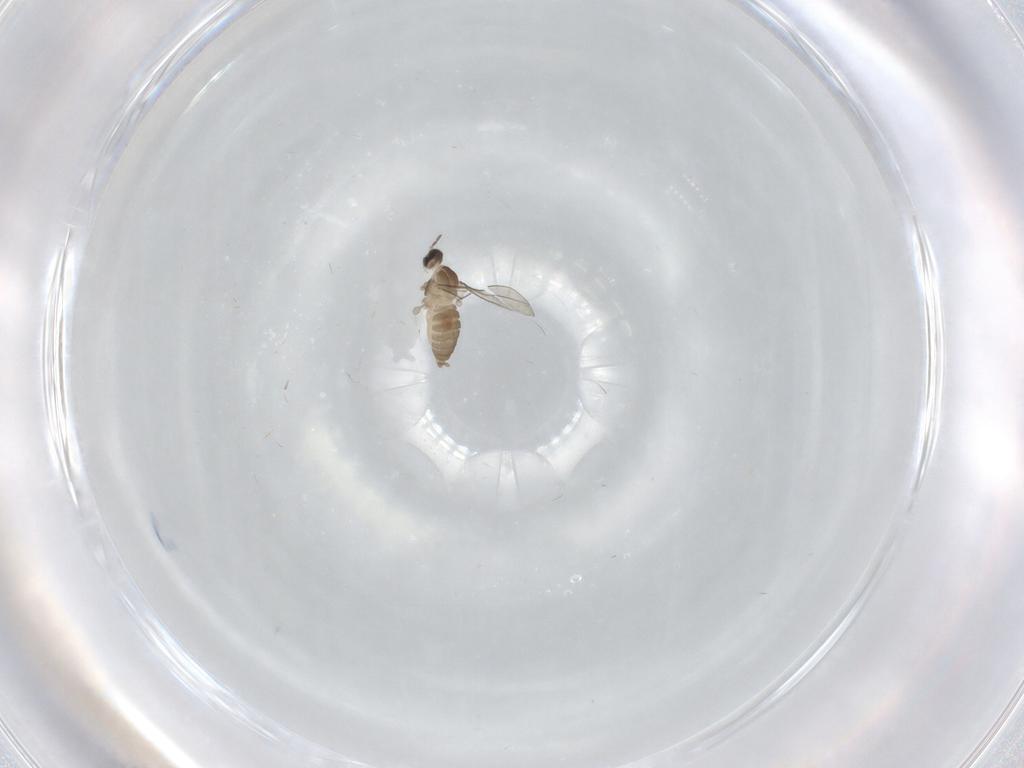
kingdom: Animalia
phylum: Arthropoda
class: Insecta
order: Diptera
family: Cecidomyiidae
